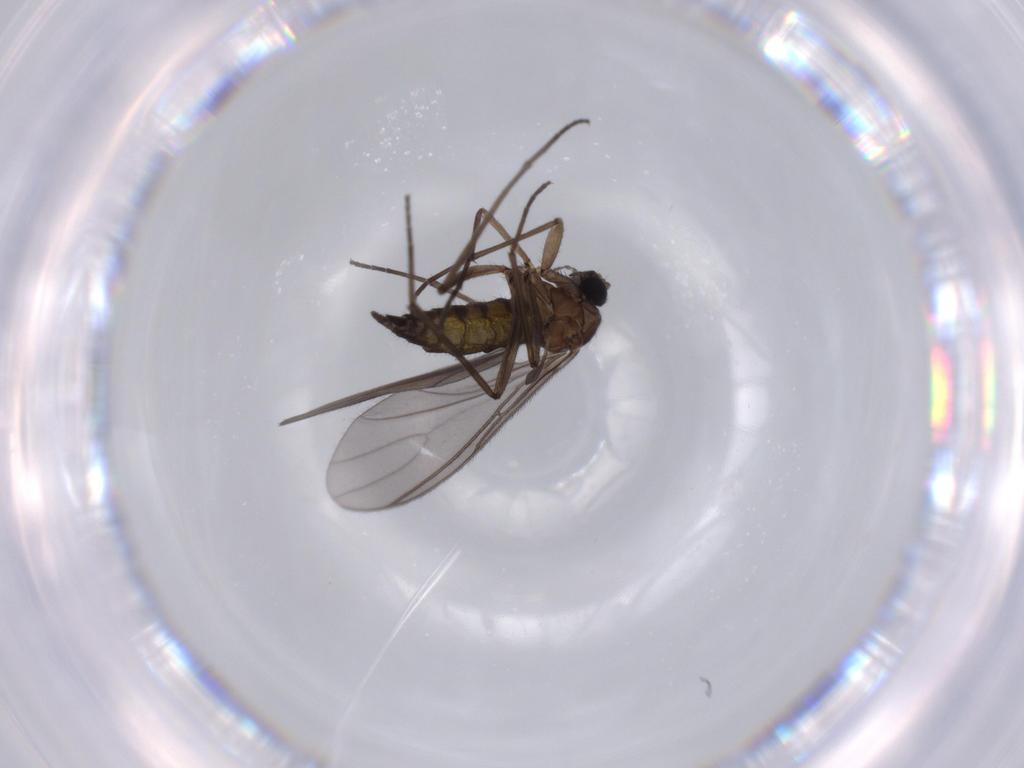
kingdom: Animalia
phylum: Arthropoda
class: Insecta
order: Diptera
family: Sciaridae
